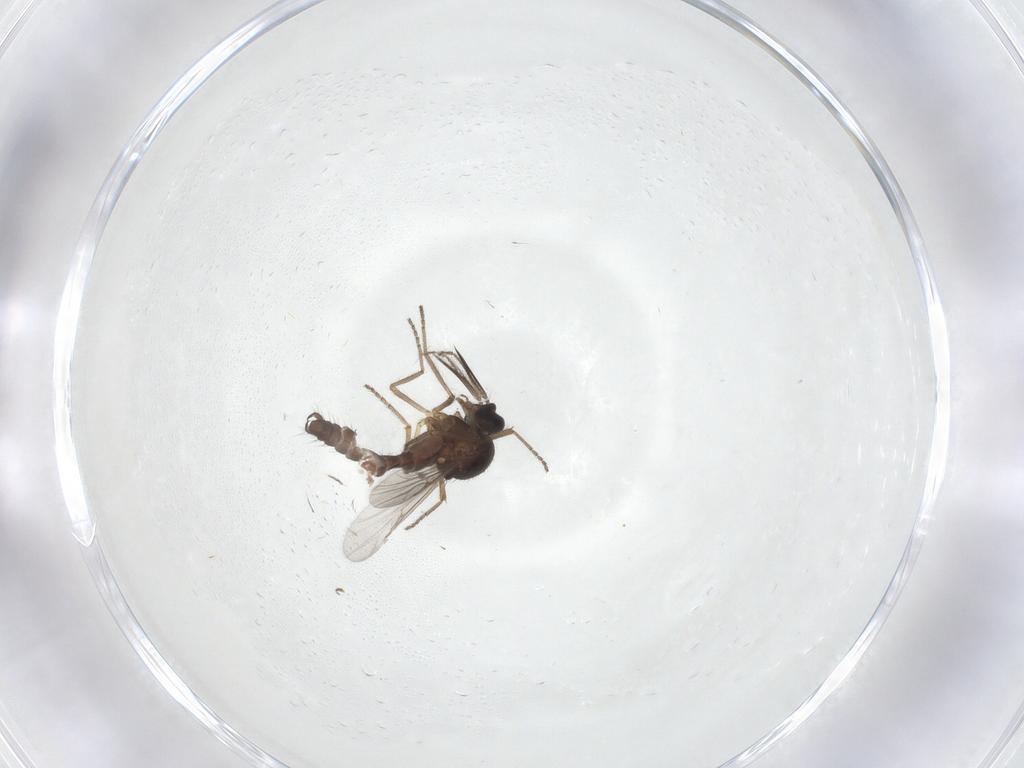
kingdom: Animalia
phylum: Arthropoda
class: Insecta
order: Diptera
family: Ceratopogonidae
